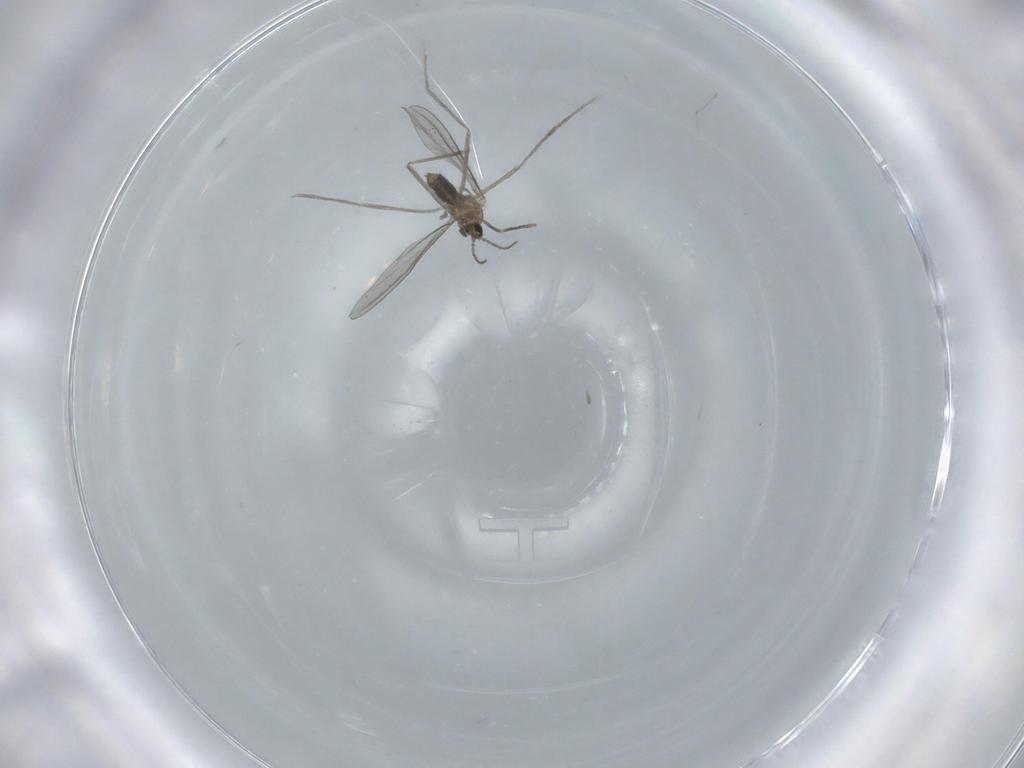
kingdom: Animalia
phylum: Arthropoda
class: Insecta
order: Diptera
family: Cecidomyiidae
